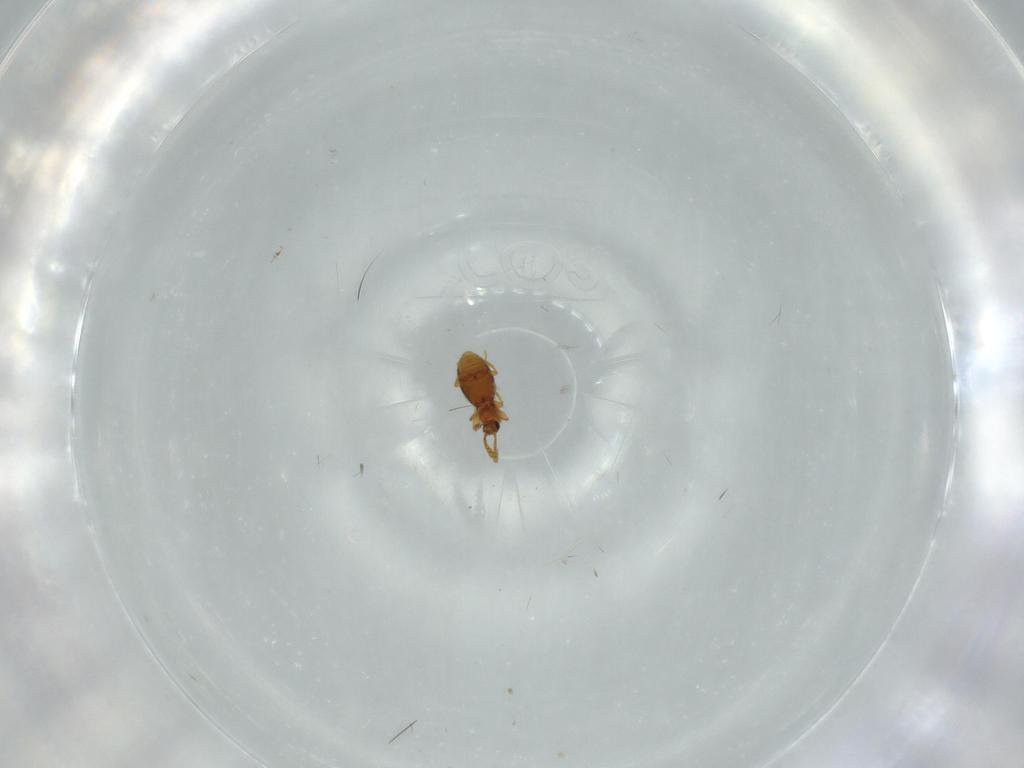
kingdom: Animalia
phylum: Arthropoda
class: Insecta
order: Coleoptera
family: Staphylinidae
